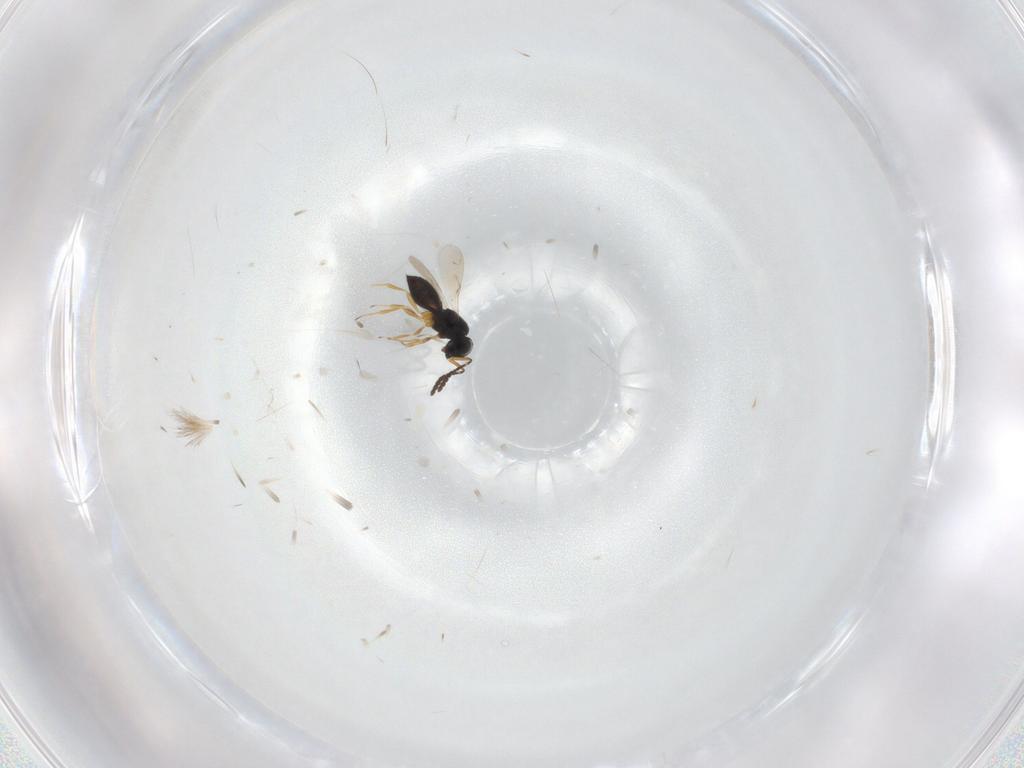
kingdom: Animalia
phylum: Arthropoda
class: Insecta
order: Hymenoptera
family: Scelionidae
